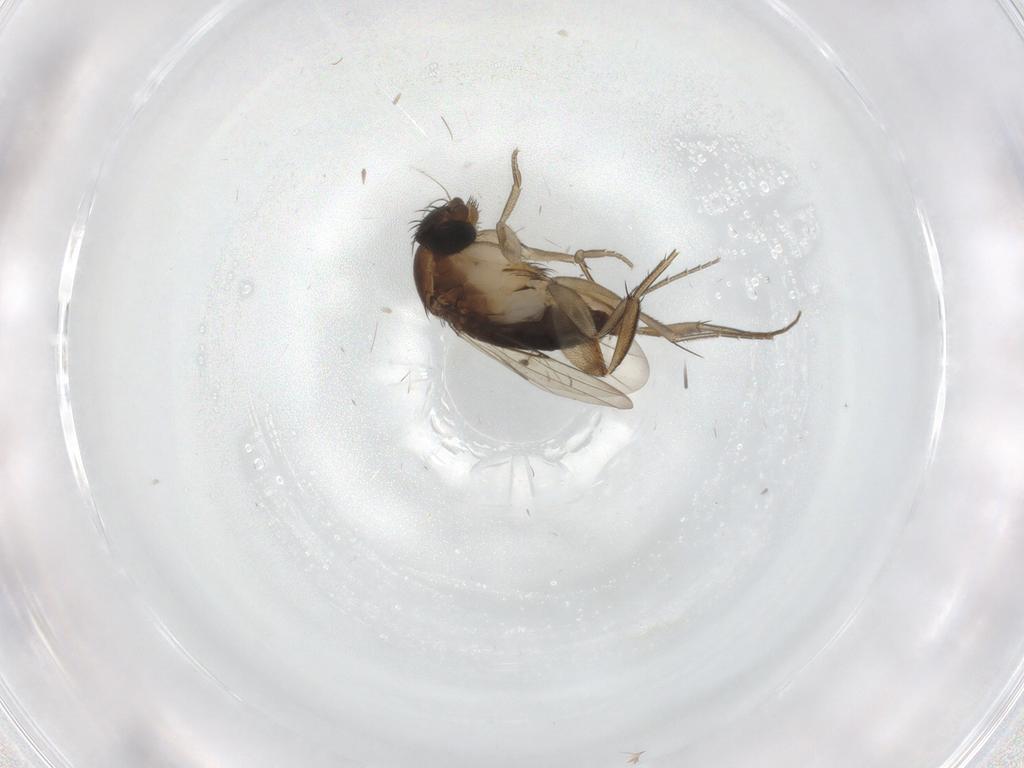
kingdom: Animalia
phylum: Arthropoda
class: Insecta
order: Diptera
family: Phoridae
